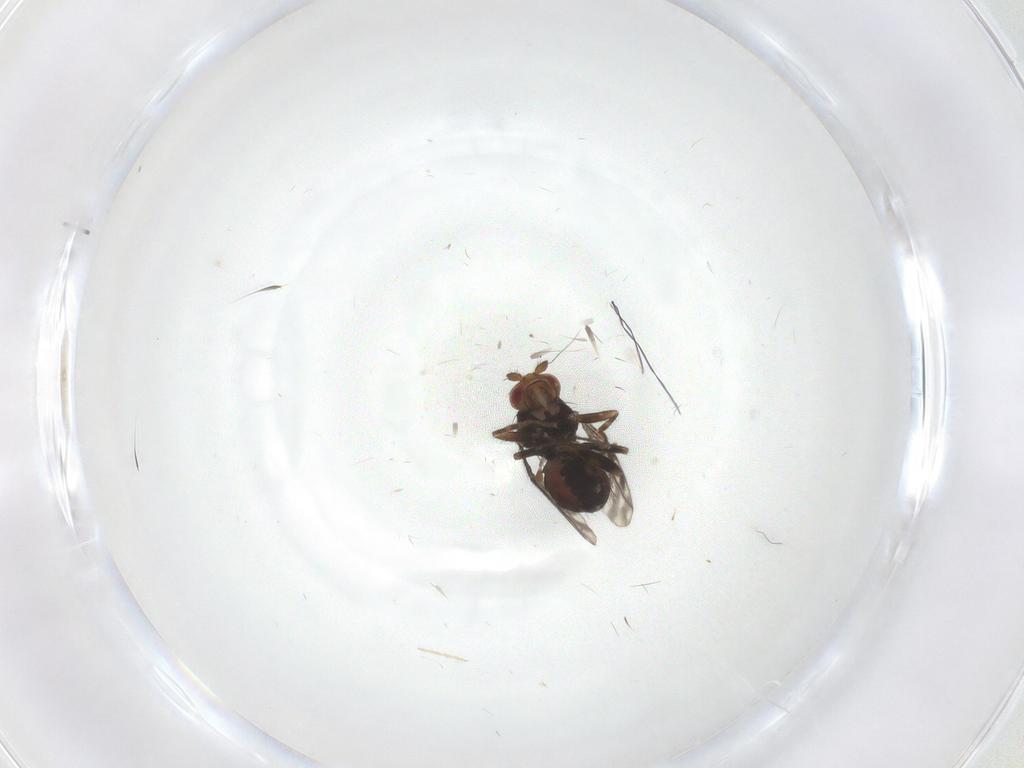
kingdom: Animalia
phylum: Arthropoda
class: Insecta
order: Diptera
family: Sphaeroceridae
